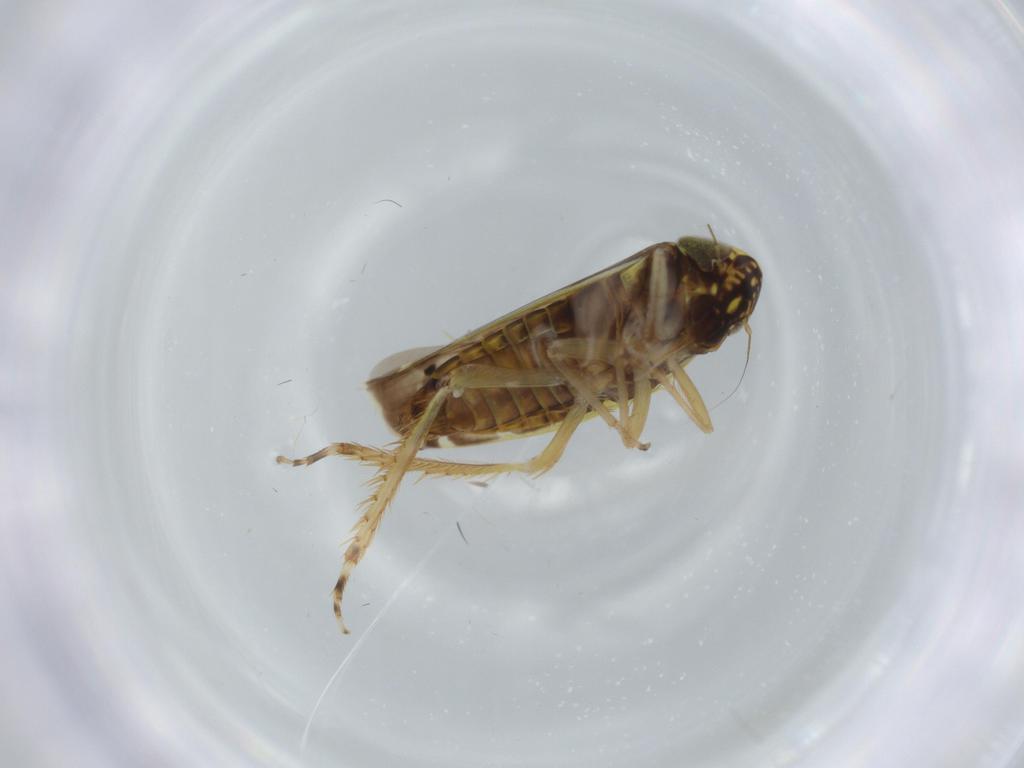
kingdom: Animalia
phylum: Arthropoda
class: Insecta
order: Hemiptera
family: Cicadellidae
